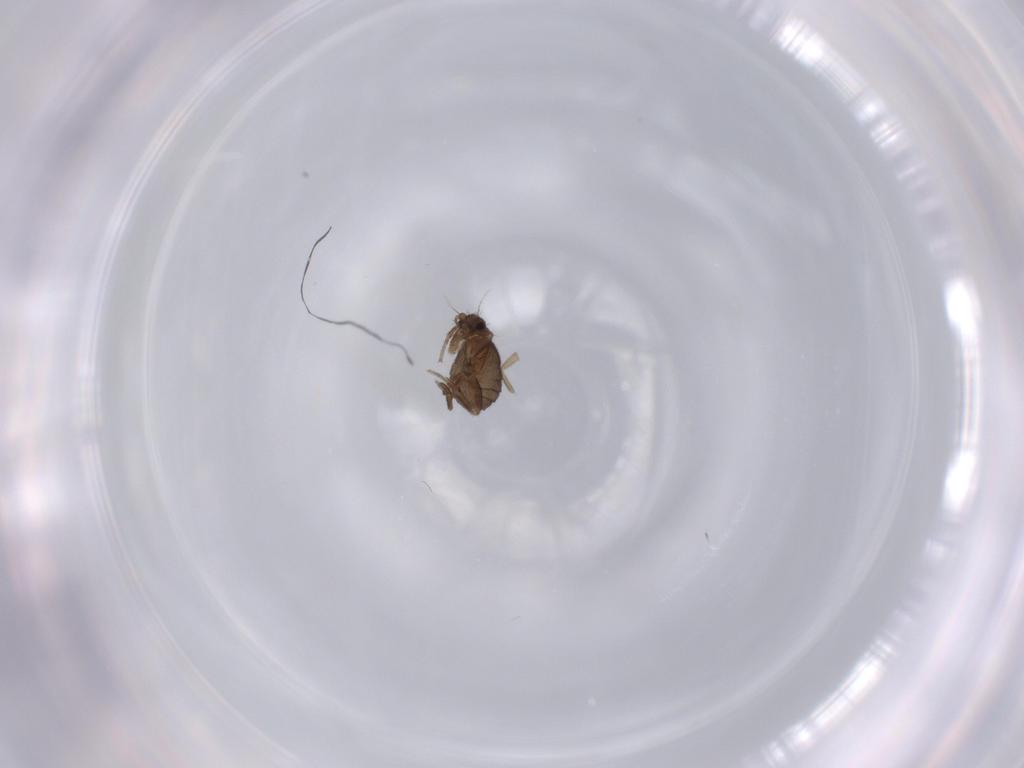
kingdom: Animalia
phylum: Arthropoda
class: Insecta
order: Diptera
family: Phoridae
